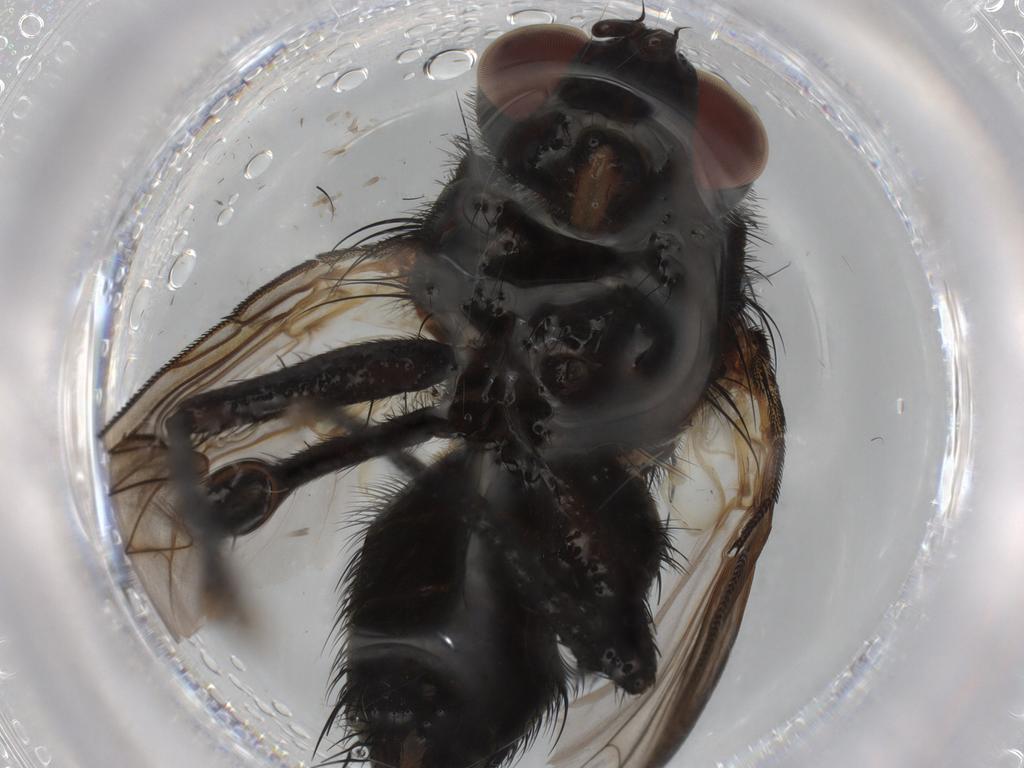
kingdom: Animalia
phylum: Arthropoda
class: Insecta
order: Diptera
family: Tachinidae
